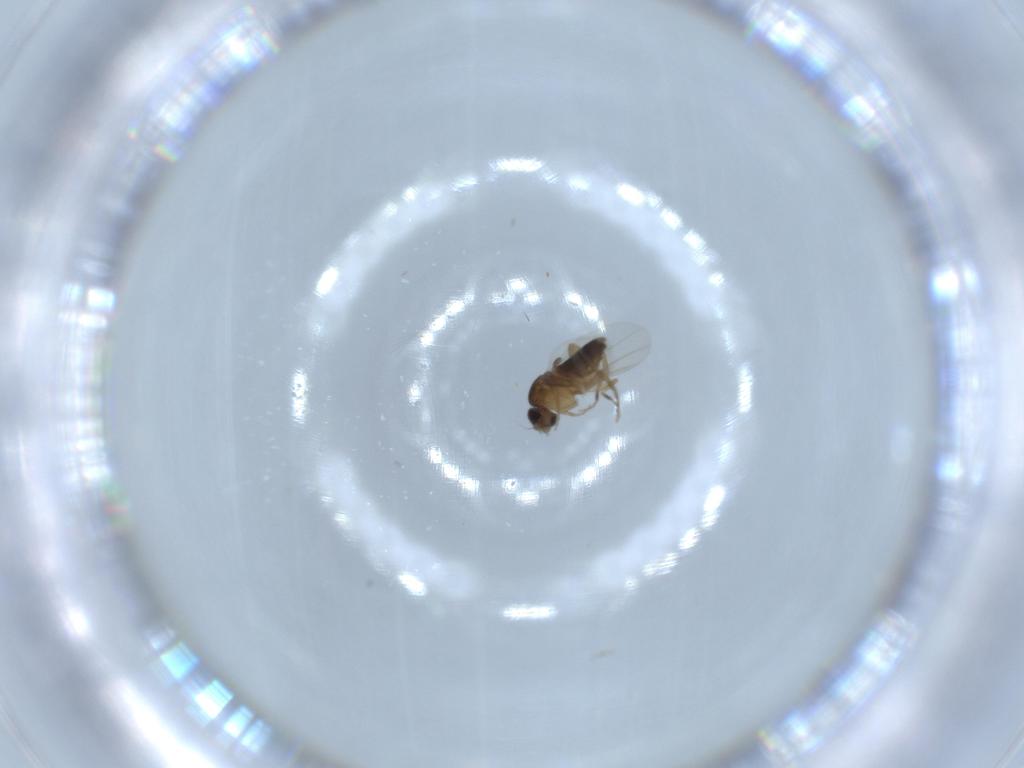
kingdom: Animalia
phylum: Arthropoda
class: Insecta
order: Diptera
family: Phoridae
